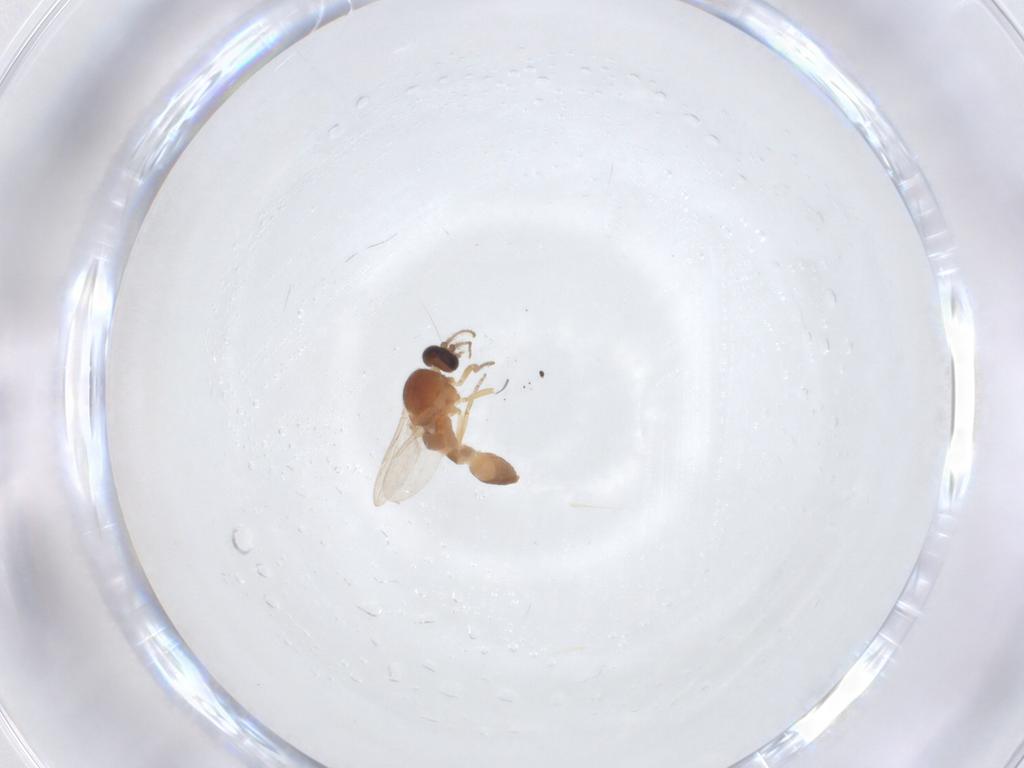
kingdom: Animalia
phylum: Arthropoda
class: Insecta
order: Diptera
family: Ceratopogonidae
